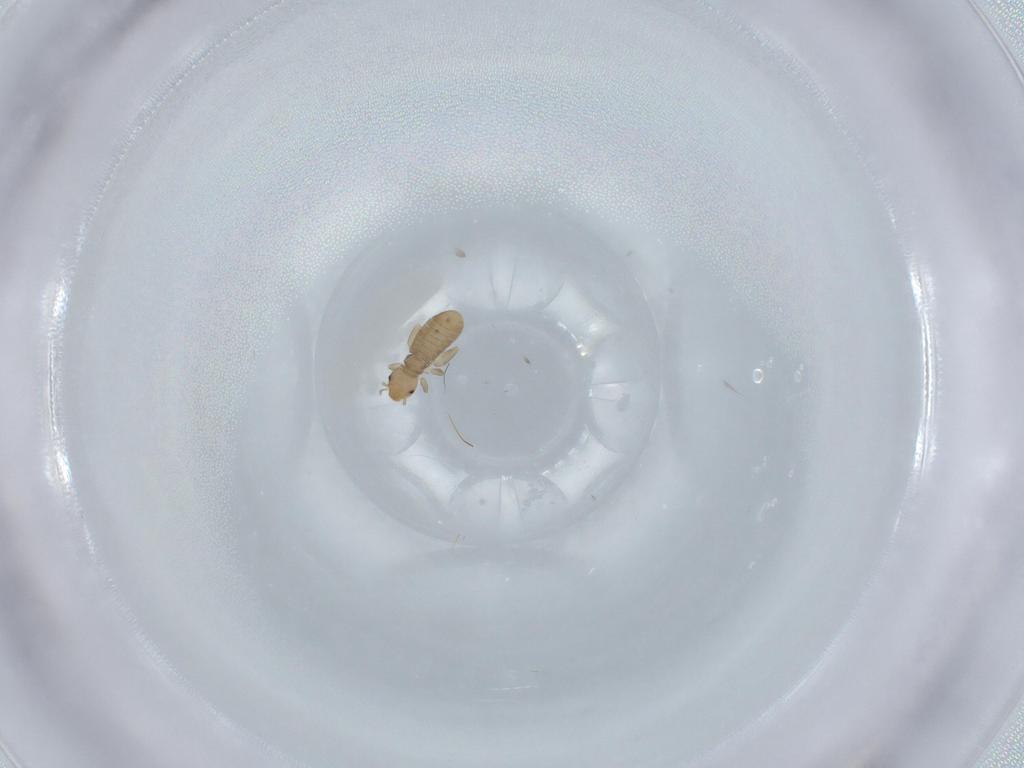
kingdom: Animalia
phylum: Arthropoda
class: Insecta
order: Psocodea
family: Liposcelididae
